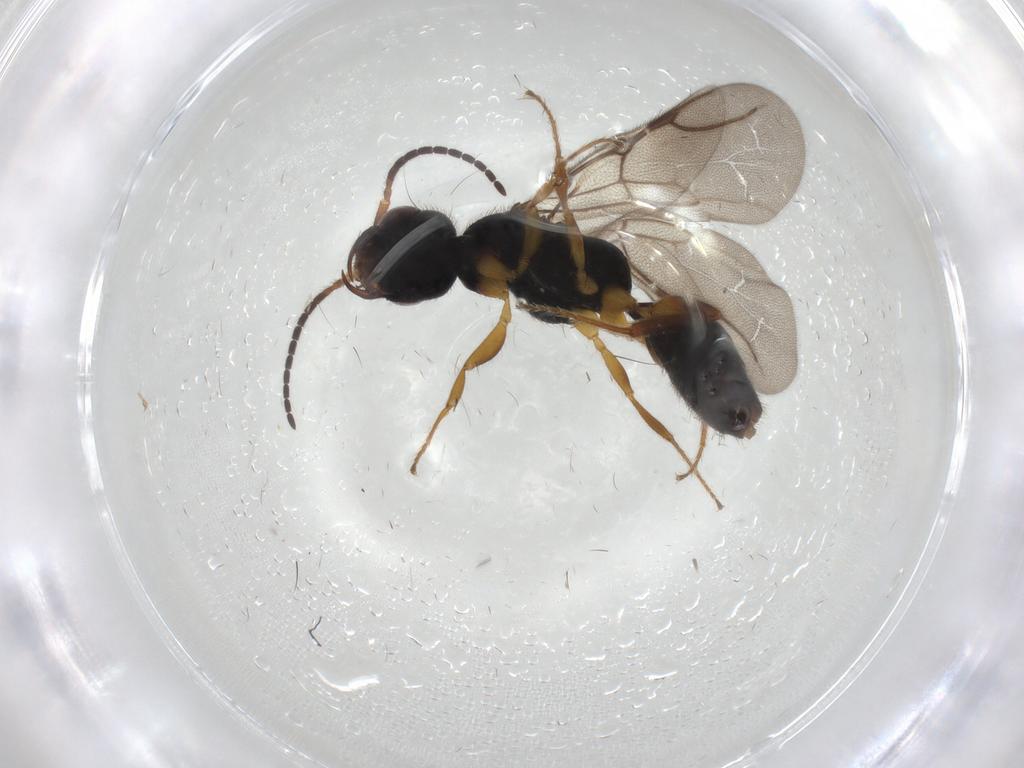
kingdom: Animalia
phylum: Arthropoda
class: Insecta
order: Hymenoptera
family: Bethylidae
